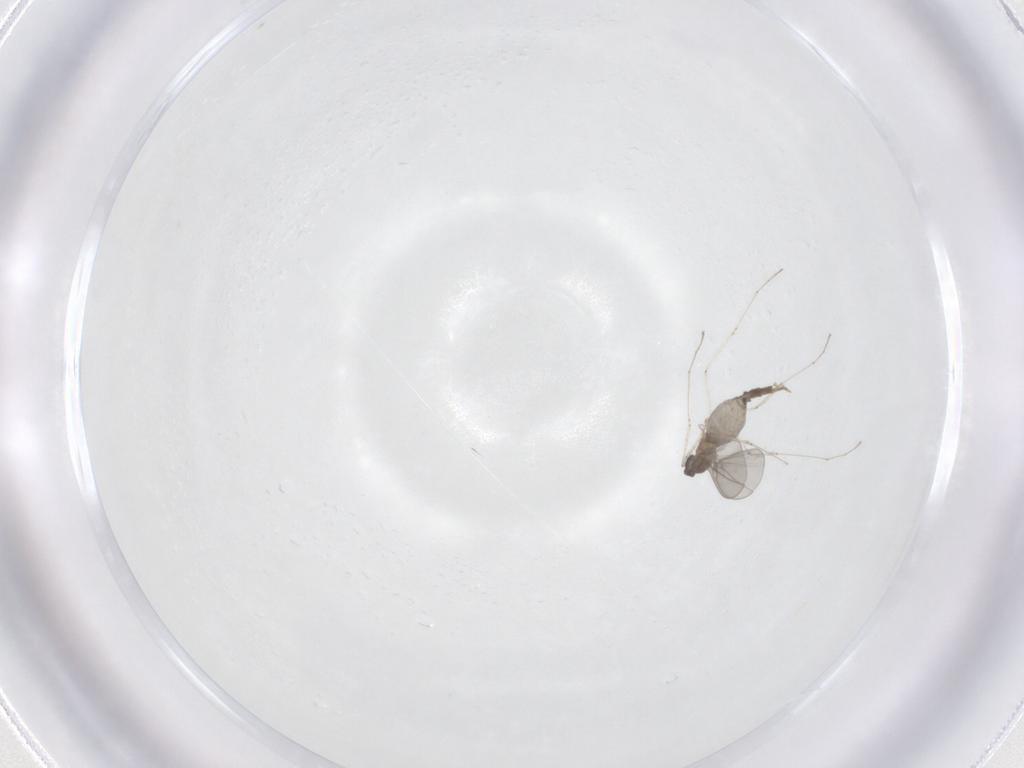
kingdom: Animalia
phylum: Arthropoda
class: Insecta
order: Diptera
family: Cecidomyiidae
